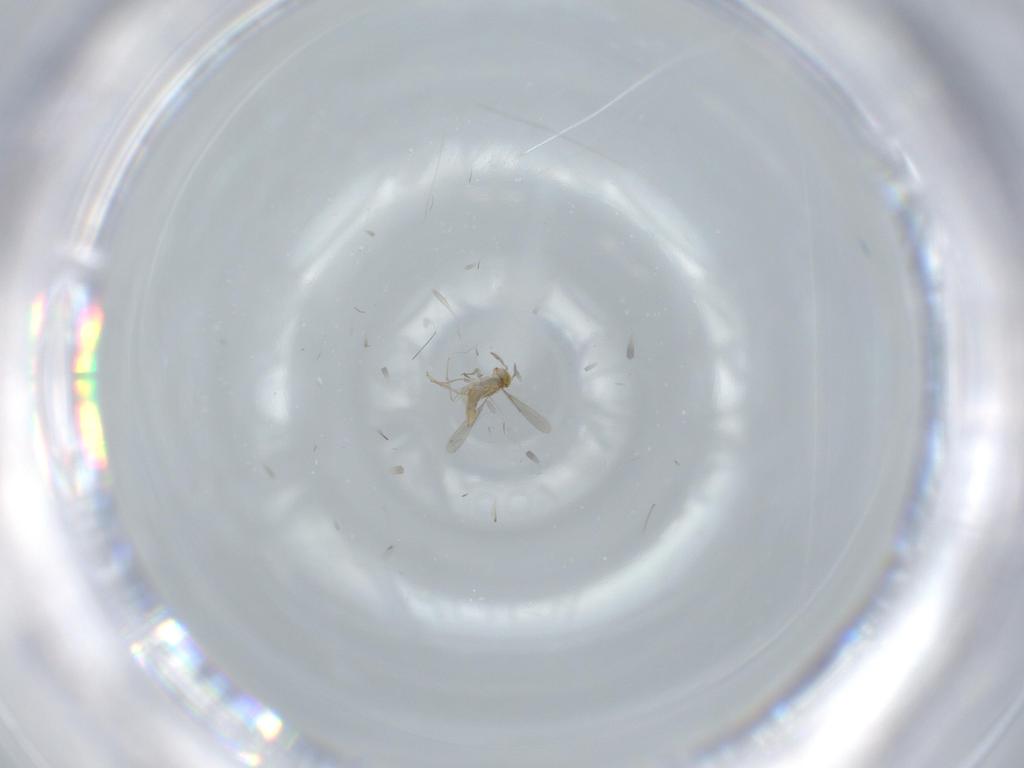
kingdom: Animalia
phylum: Arthropoda
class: Insecta
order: Hymenoptera
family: Aphelinidae
